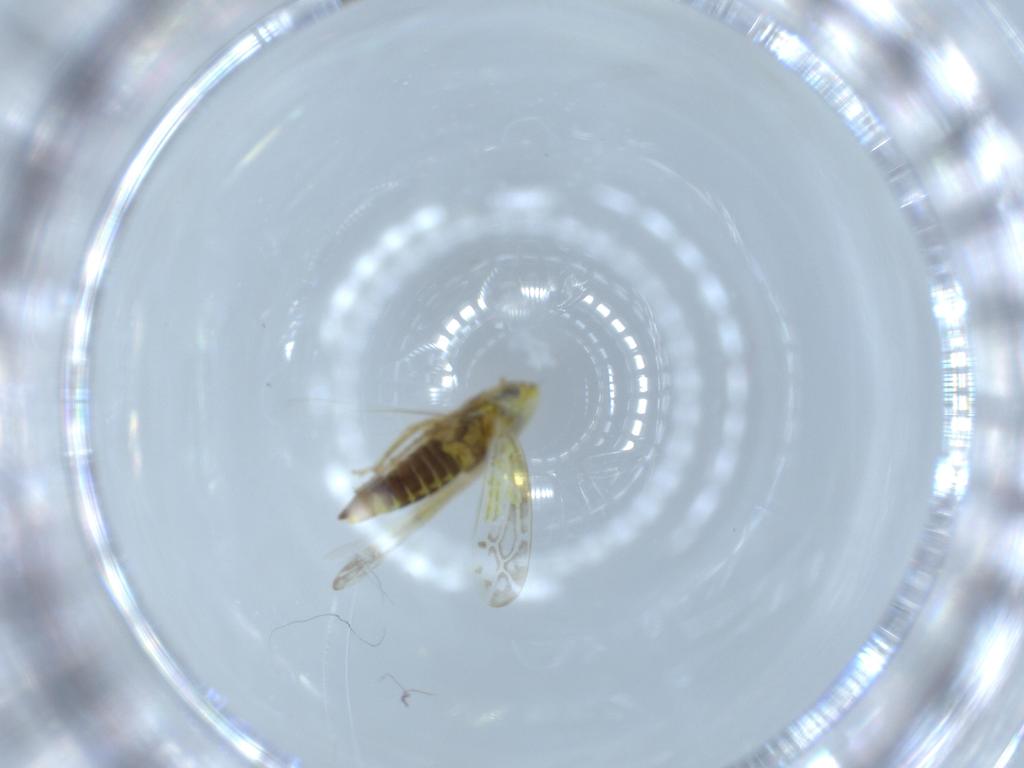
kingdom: Animalia
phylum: Arthropoda
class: Insecta
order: Hemiptera
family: Cicadellidae
